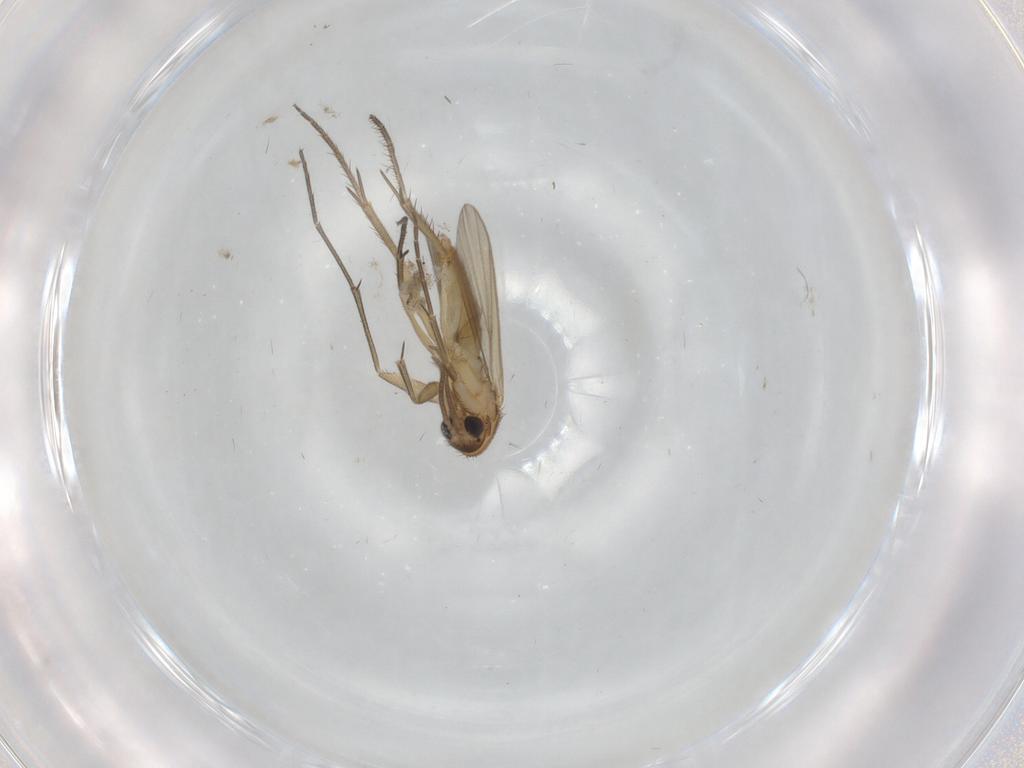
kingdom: Animalia
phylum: Arthropoda
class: Insecta
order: Diptera
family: Mycetophilidae
